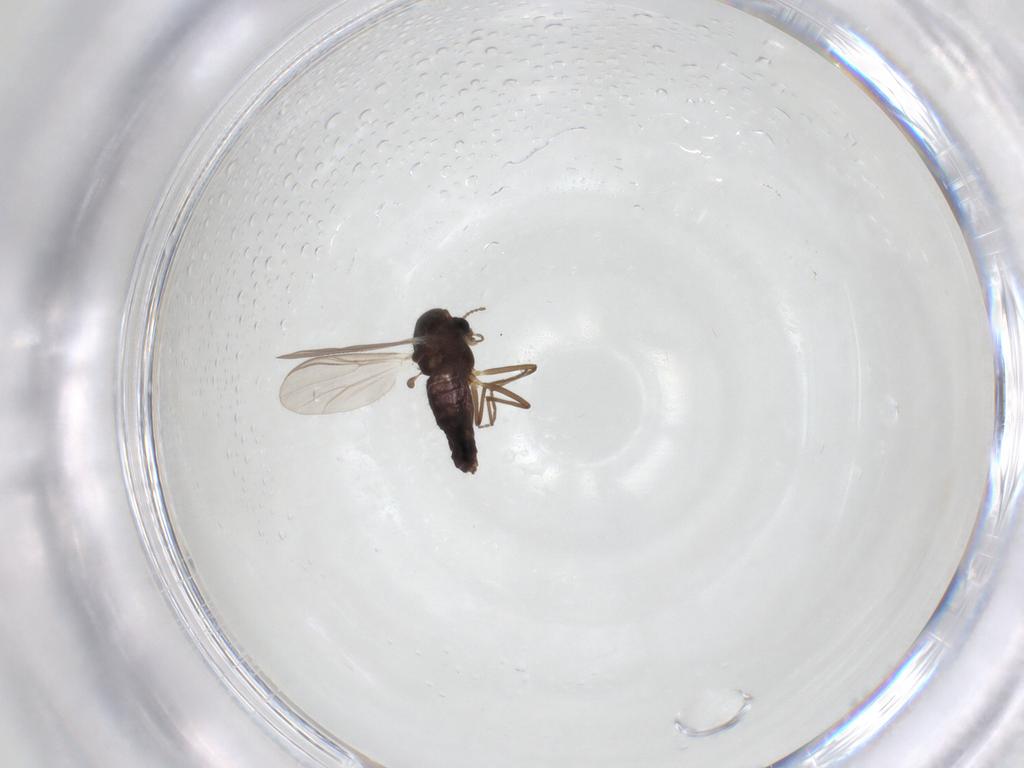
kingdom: Animalia
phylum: Arthropoda
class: Insecta
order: Diptera
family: Chironomidae
